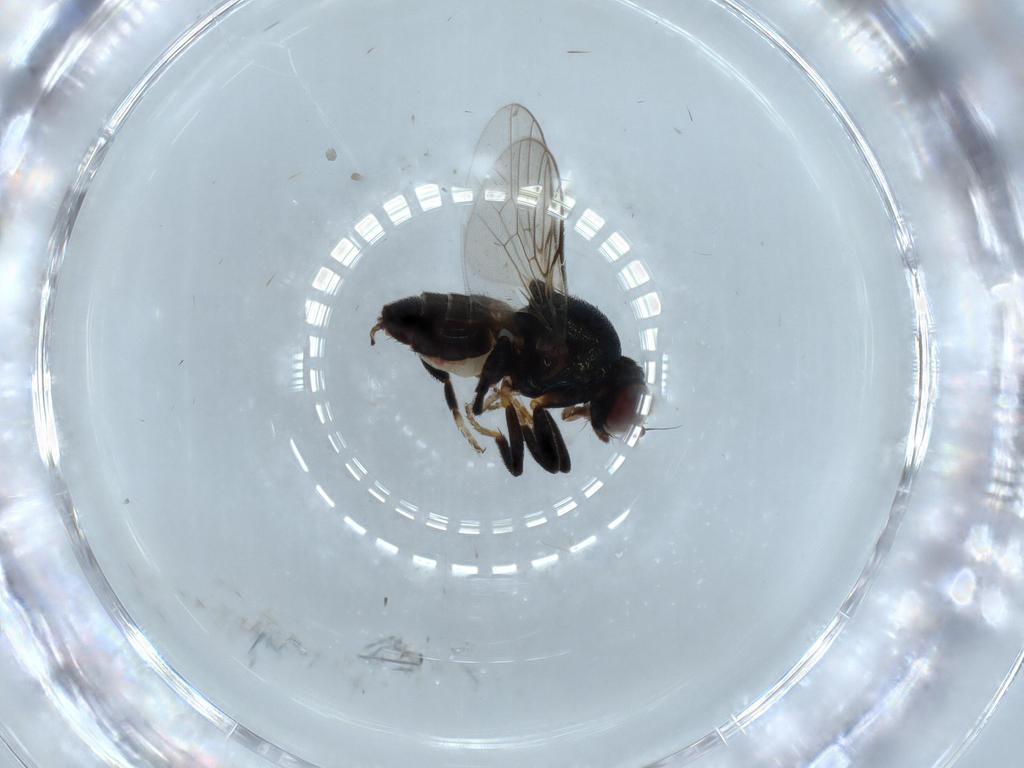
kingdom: Animalia
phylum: Arthropoda
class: Insecta
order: Diptera
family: Chloropidae
